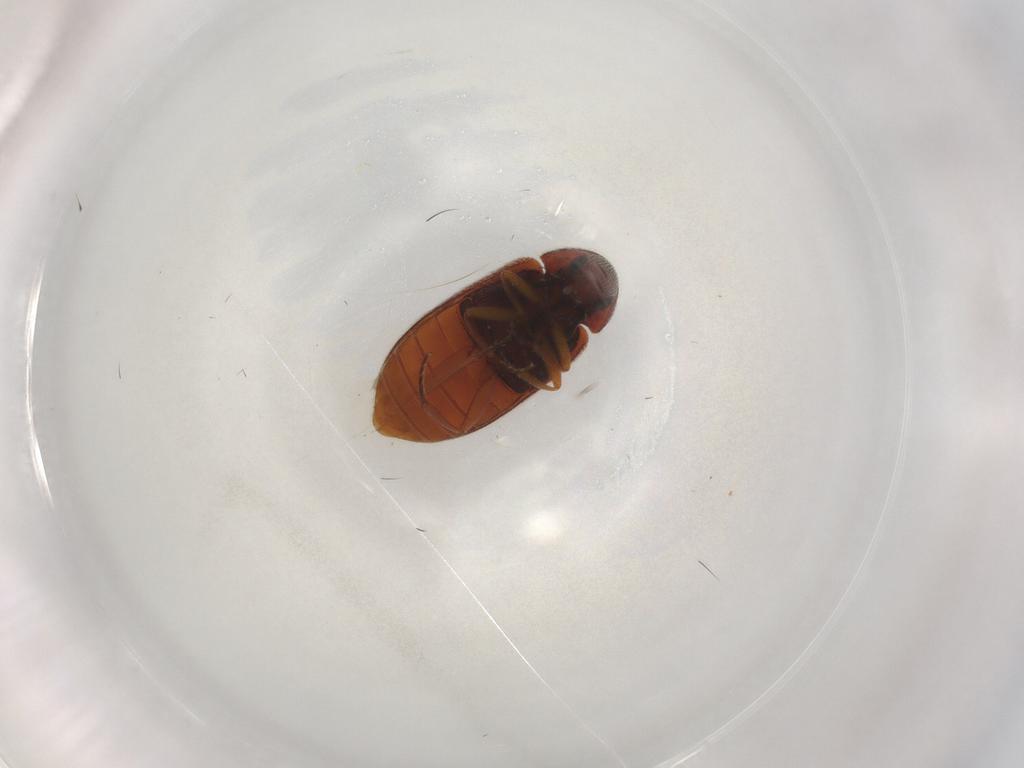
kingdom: Animalia
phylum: Arthropoda
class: Insecta
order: Coleoptera
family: Rhadalidae
